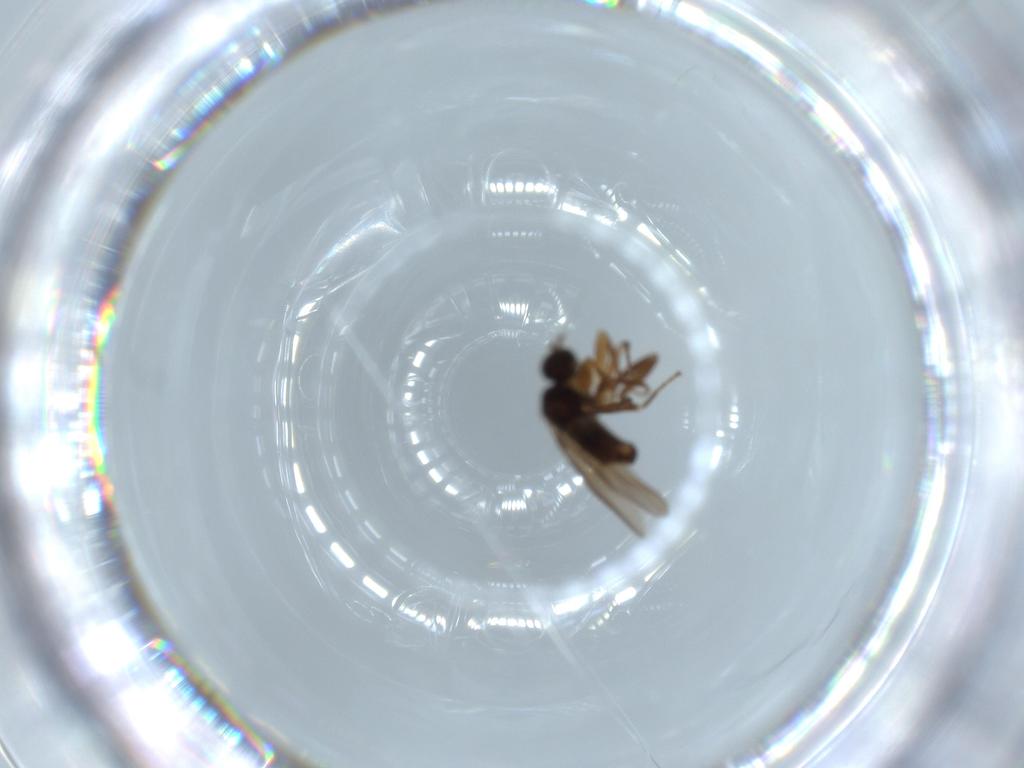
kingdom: Animalia
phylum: Arthropoda
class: Insecta
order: Diptera
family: Hybotidae
